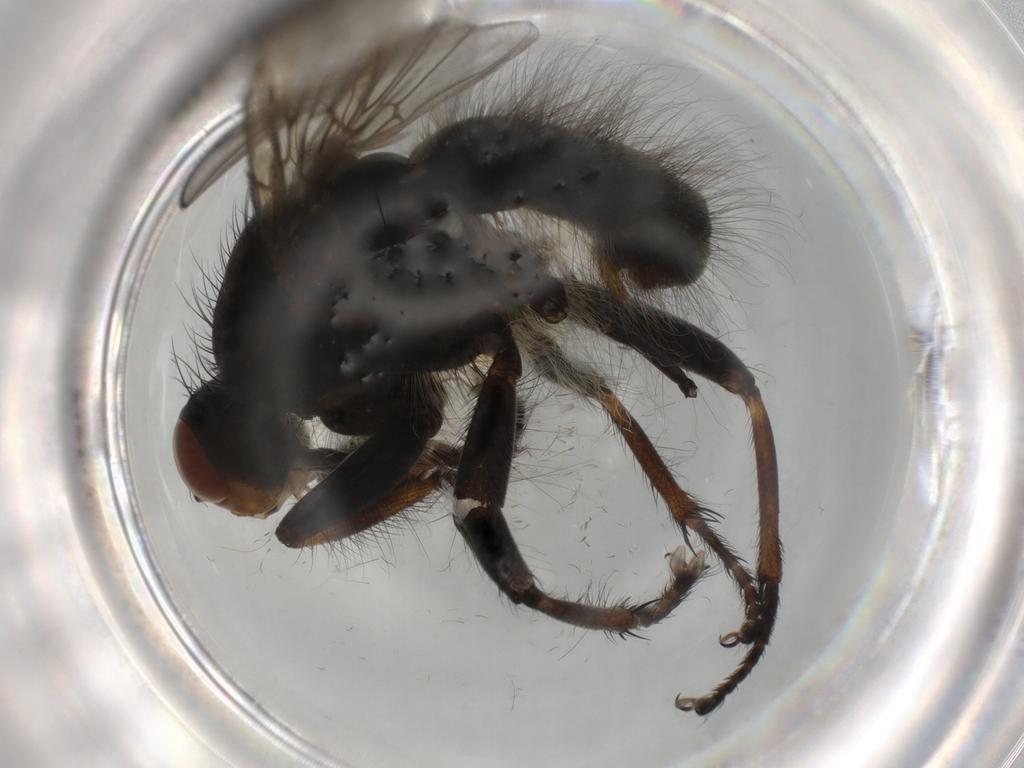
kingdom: Animalia
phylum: Arthropoda
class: Insecta
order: Diptera
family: Scathophagidae
